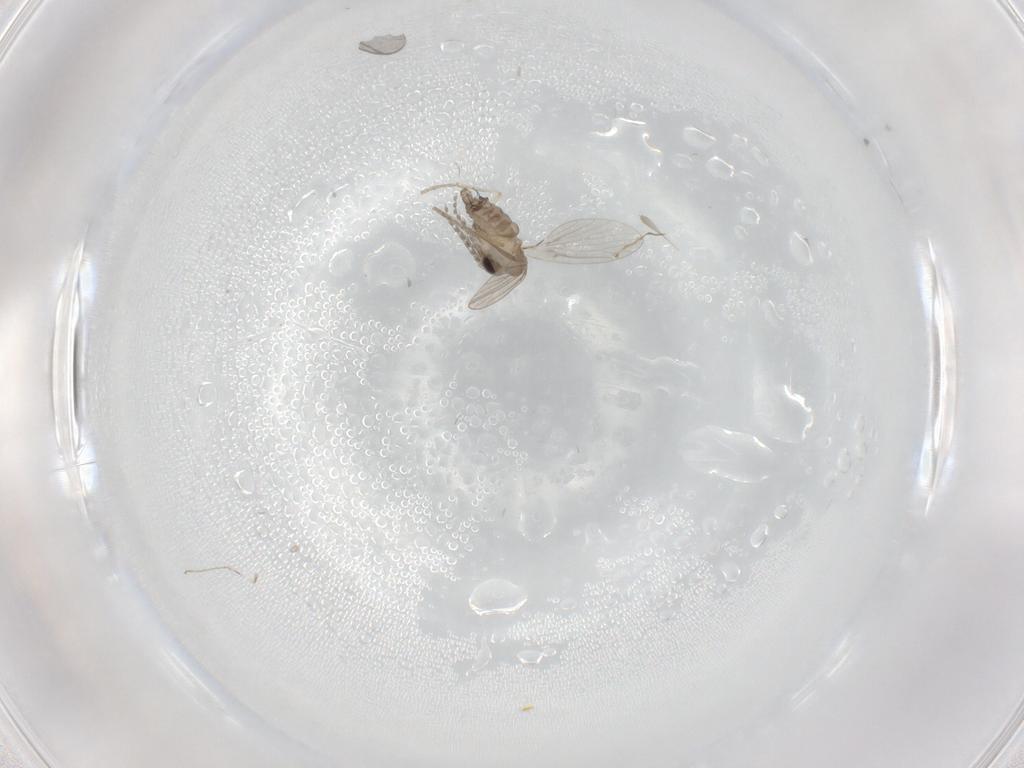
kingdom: Animalia
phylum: Arthropoda
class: Insecta
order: Diptera
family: Cecidomyiidae
